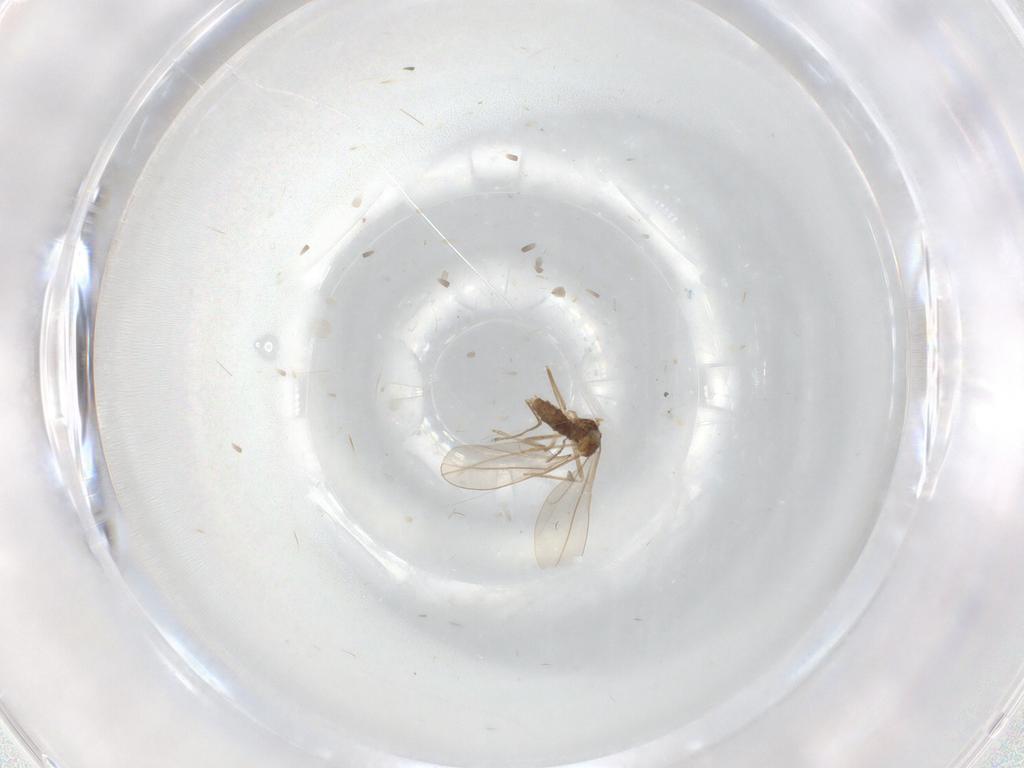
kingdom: Animalia
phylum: Arthropoda
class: Insecta
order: Diptera
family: Cecidomyiidae
